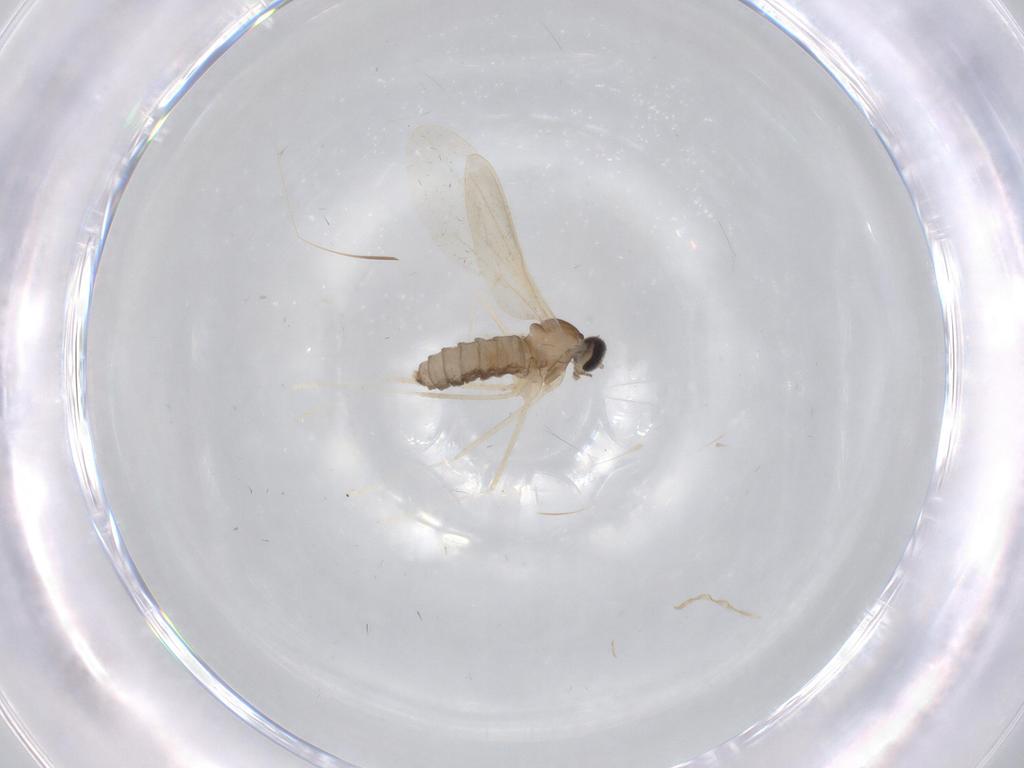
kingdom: Animalia
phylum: Arthropoda
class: Insecta
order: Diptera
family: Cecidomyiidae
